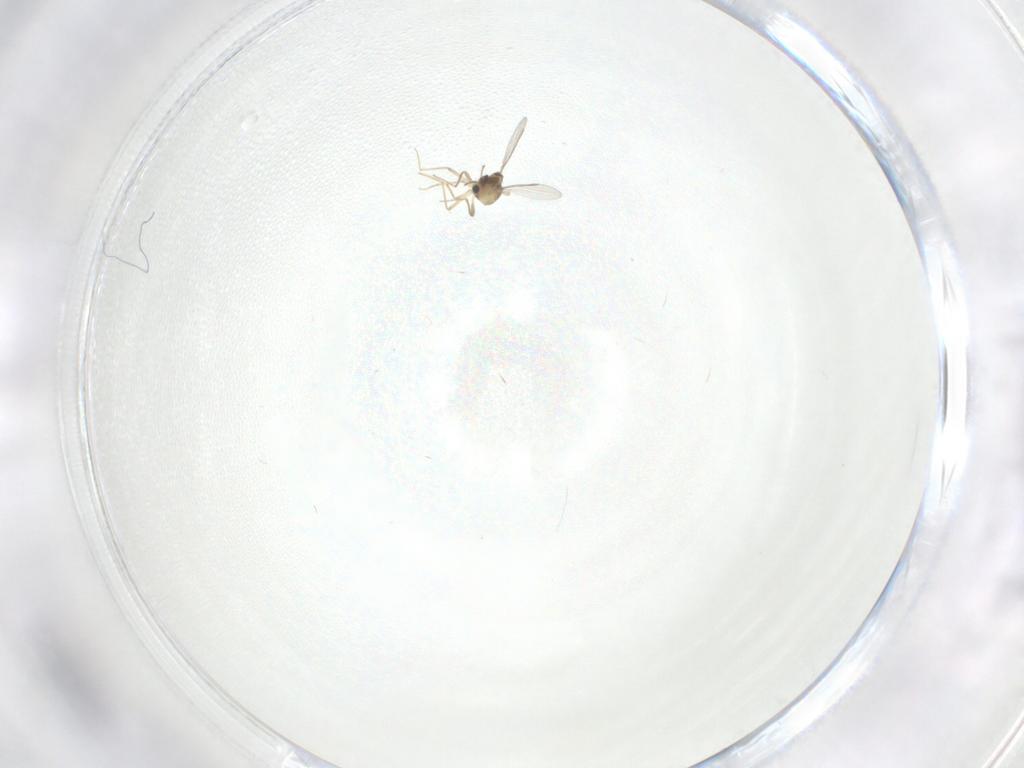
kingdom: Animalia
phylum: Arthropoda
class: Insecta
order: Diptera
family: Chironomidae
